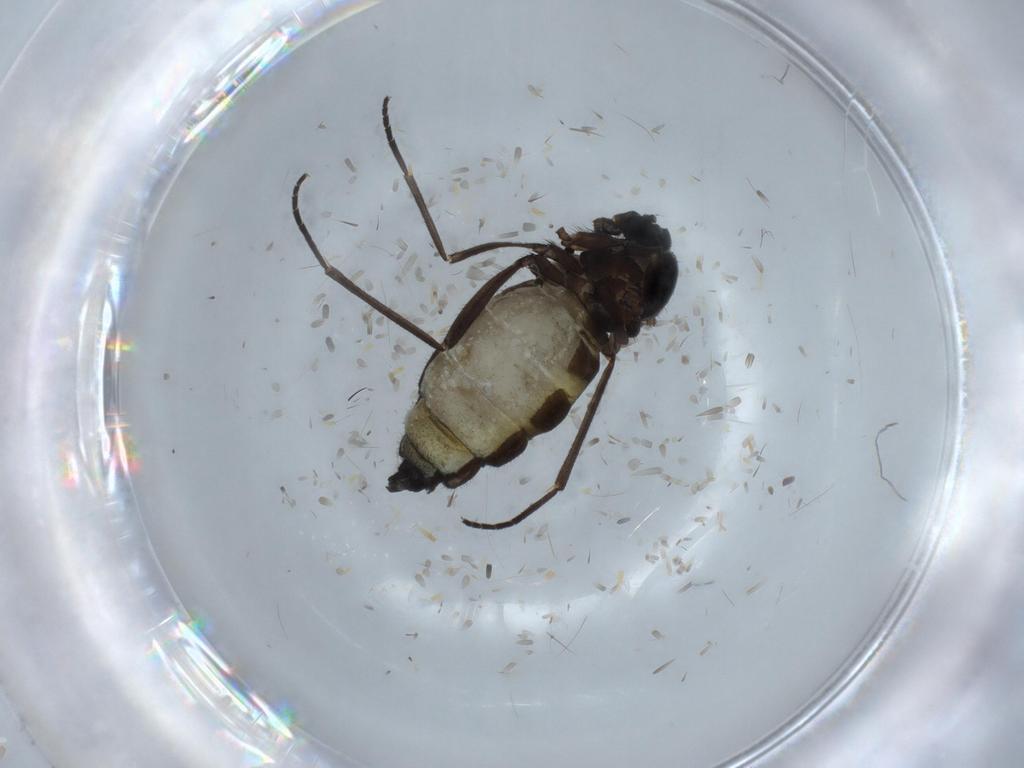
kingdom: Animalia
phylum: Arthropoda
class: Insecta
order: Diptera
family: Sciaridae
